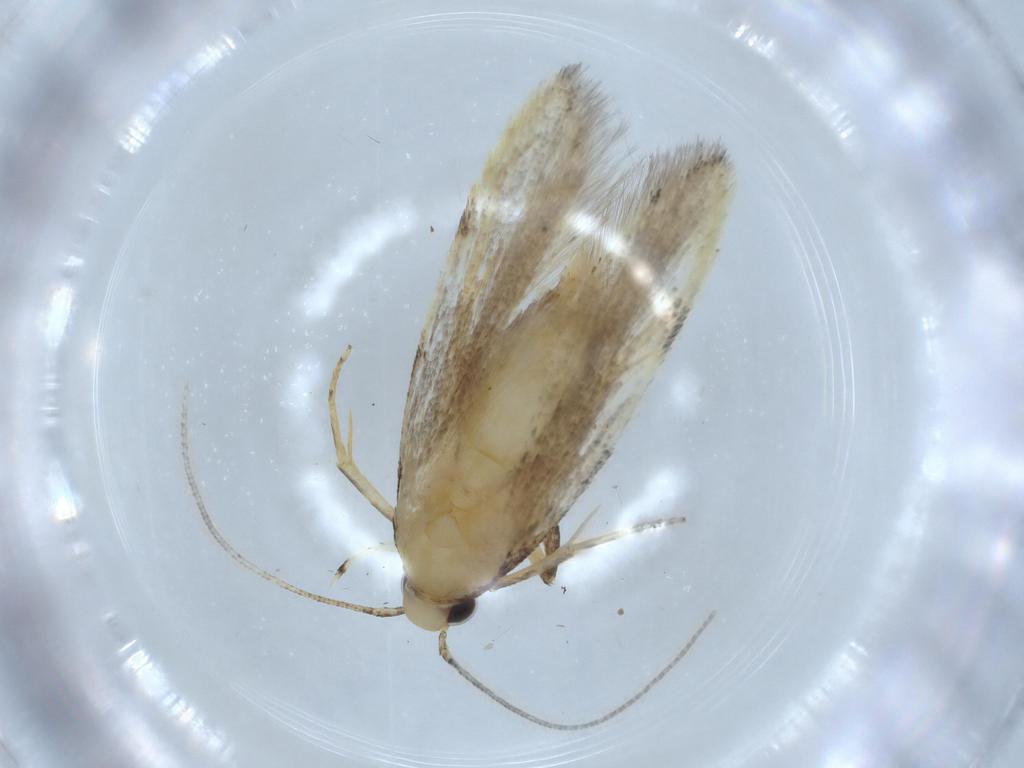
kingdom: Animalia
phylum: Arthropoda
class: Insecta
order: Lepidoptera
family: Autostichidae
